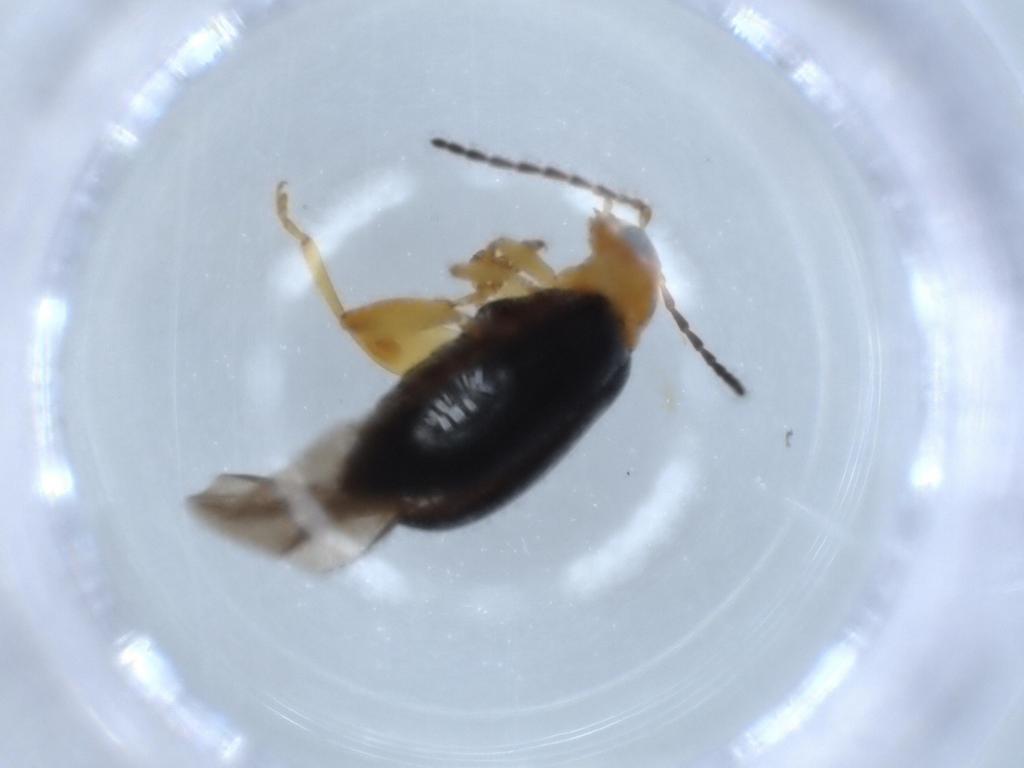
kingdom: Animalia
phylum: Arthropoda
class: Insecta
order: Coleoptera
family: Chrysomelidae
